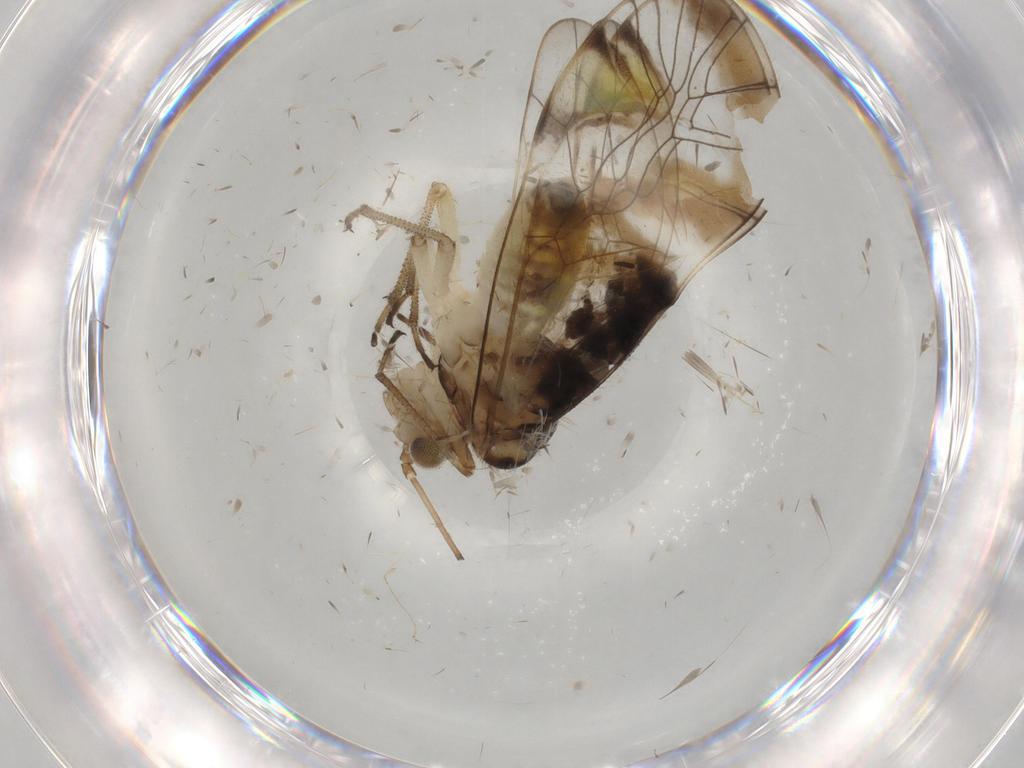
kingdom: Animalia
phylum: Arthropoda
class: Insecta
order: Psocodea
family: Amphipsocidae
